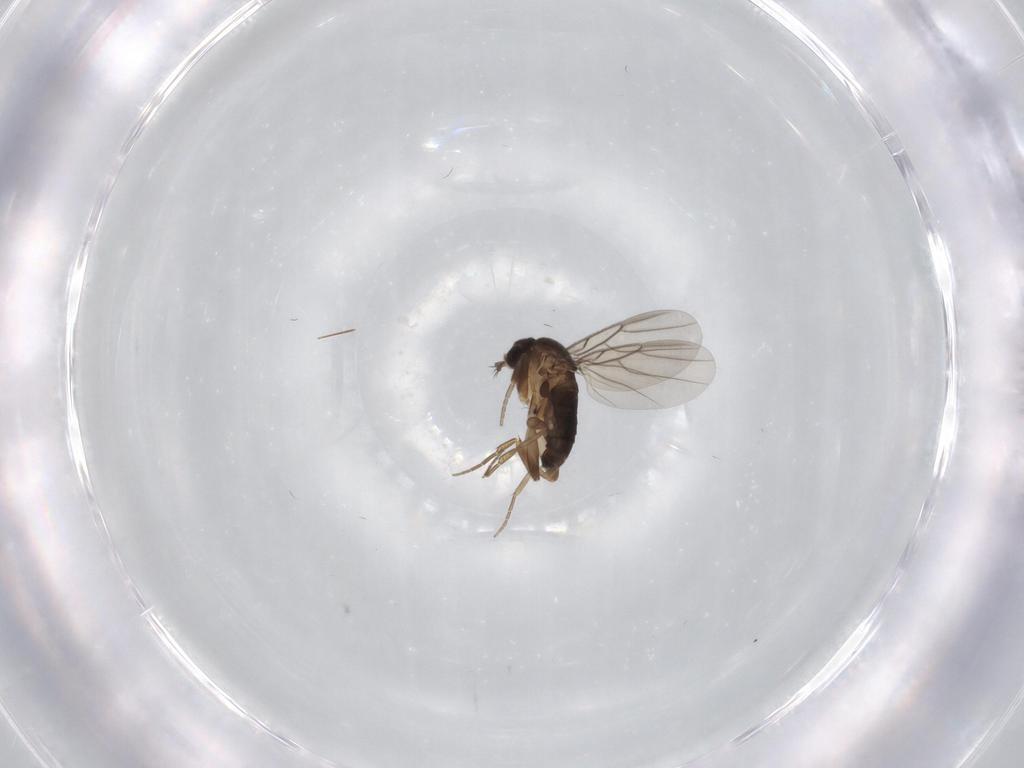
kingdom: Animalia
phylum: Arthropoda
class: Insecta
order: Diptera
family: Phoridae
